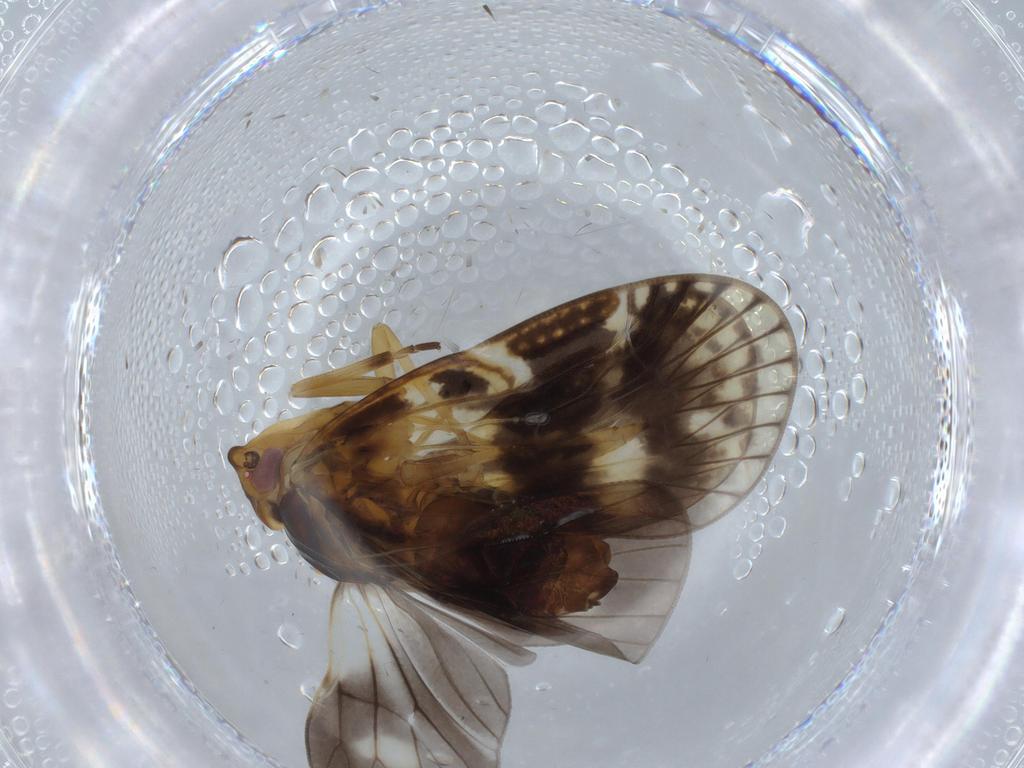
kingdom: Animalia
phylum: Arthropoda
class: Insecta
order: Hemiptera
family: Cixiidae
